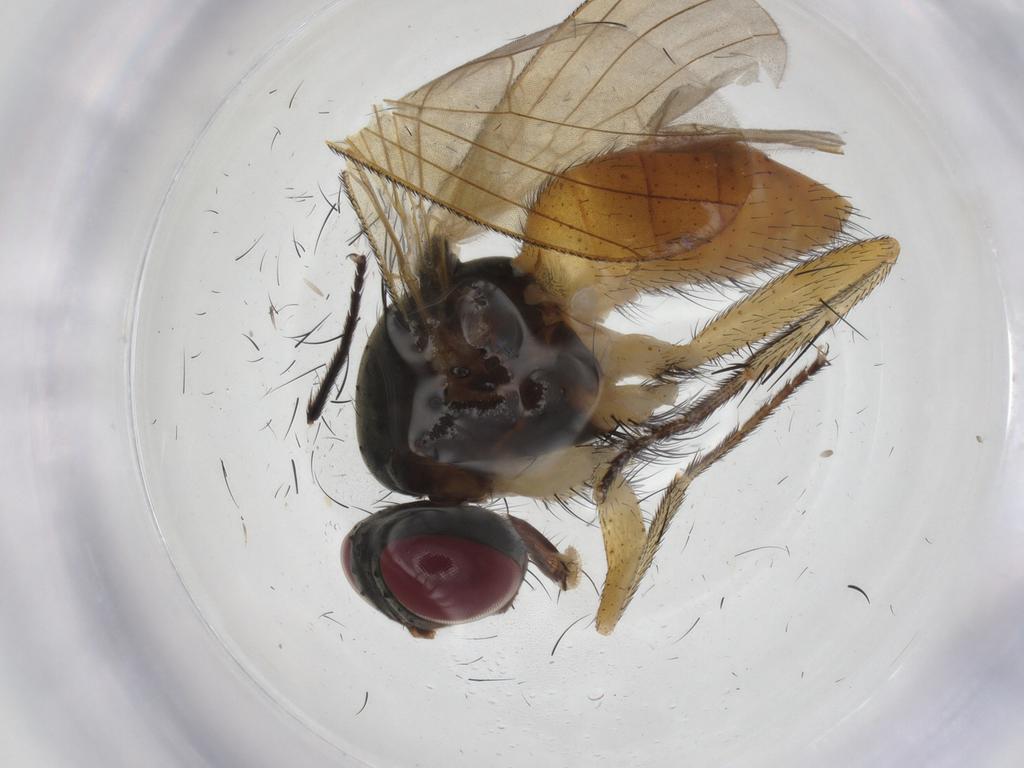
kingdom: Animalia
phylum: Arthropoda
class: Insecta
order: Diptera
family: Muscidae
